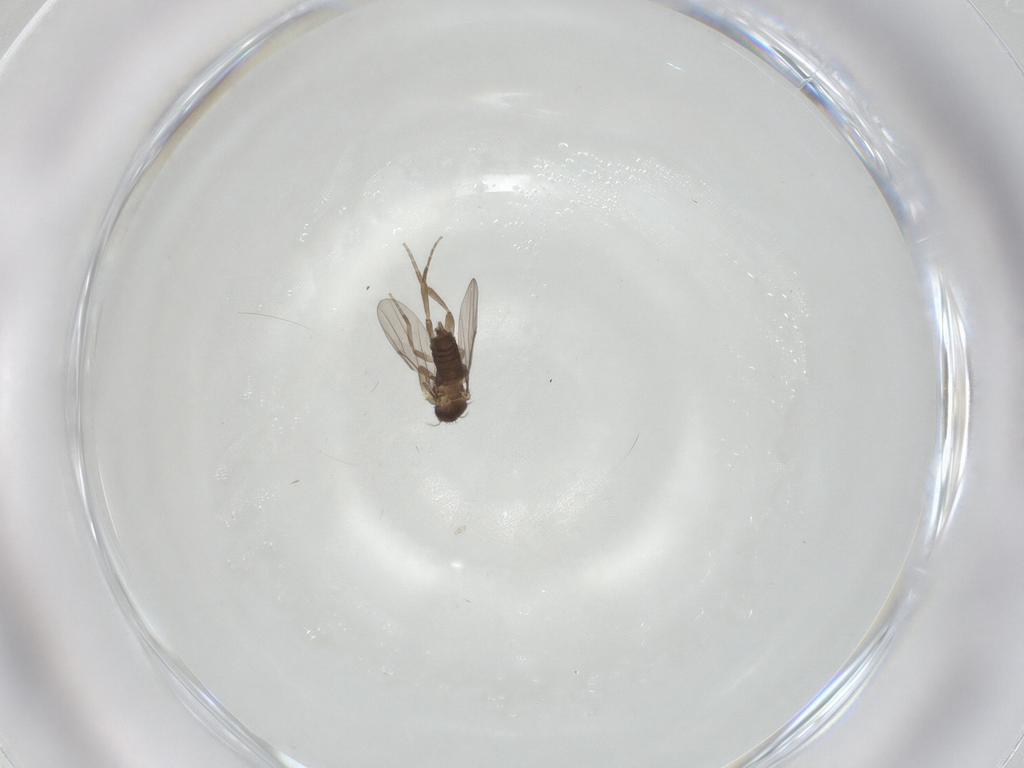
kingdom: Animalia
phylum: Arthropoda
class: Insecta
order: Diptera
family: Phoridae
